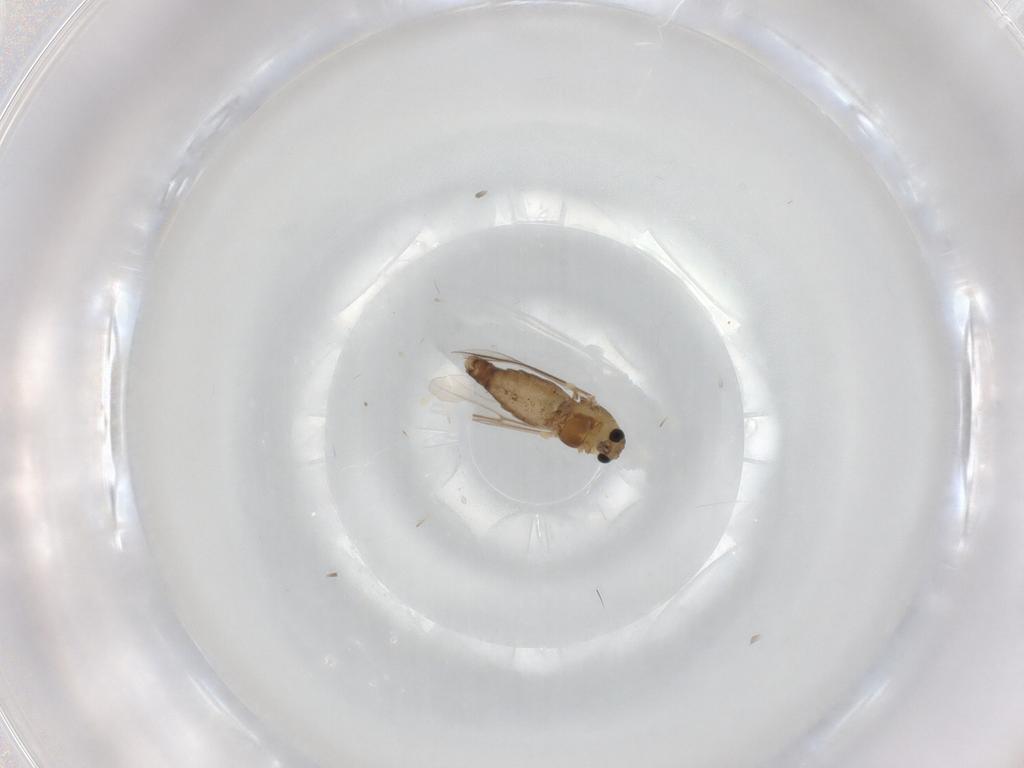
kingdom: Animalia
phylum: Arthropoda
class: Insecta
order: Diptera
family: Chironomidae
